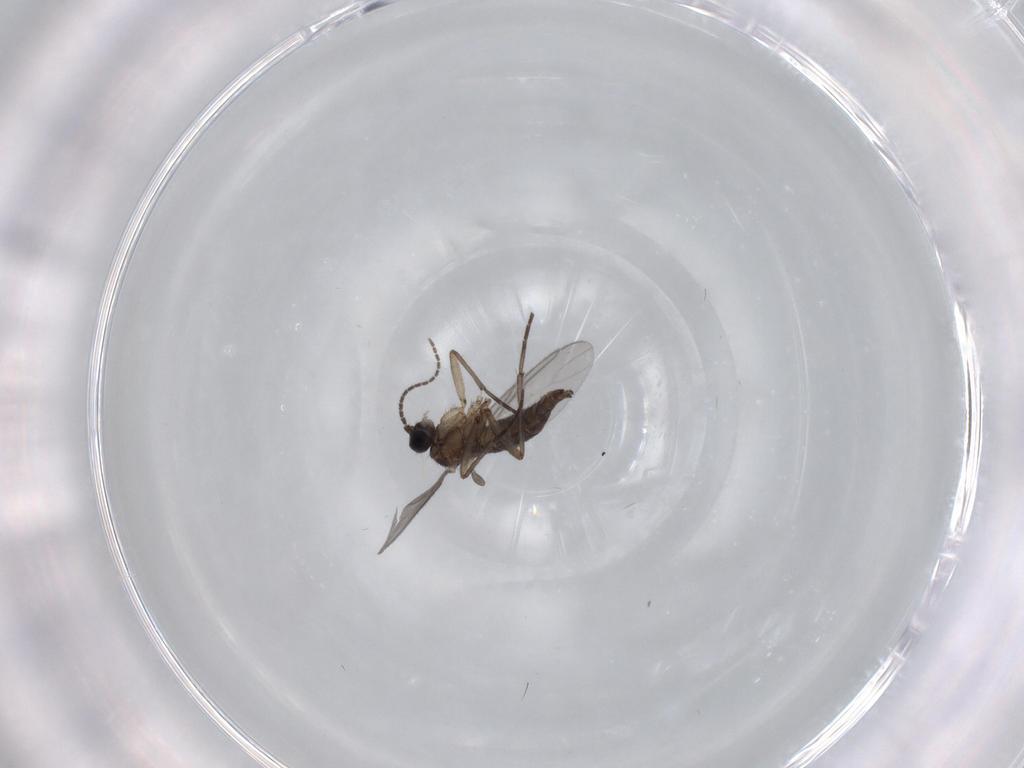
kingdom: Animalia
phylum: Arthropoda
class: Insecta
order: Diptera
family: Sciaridae
